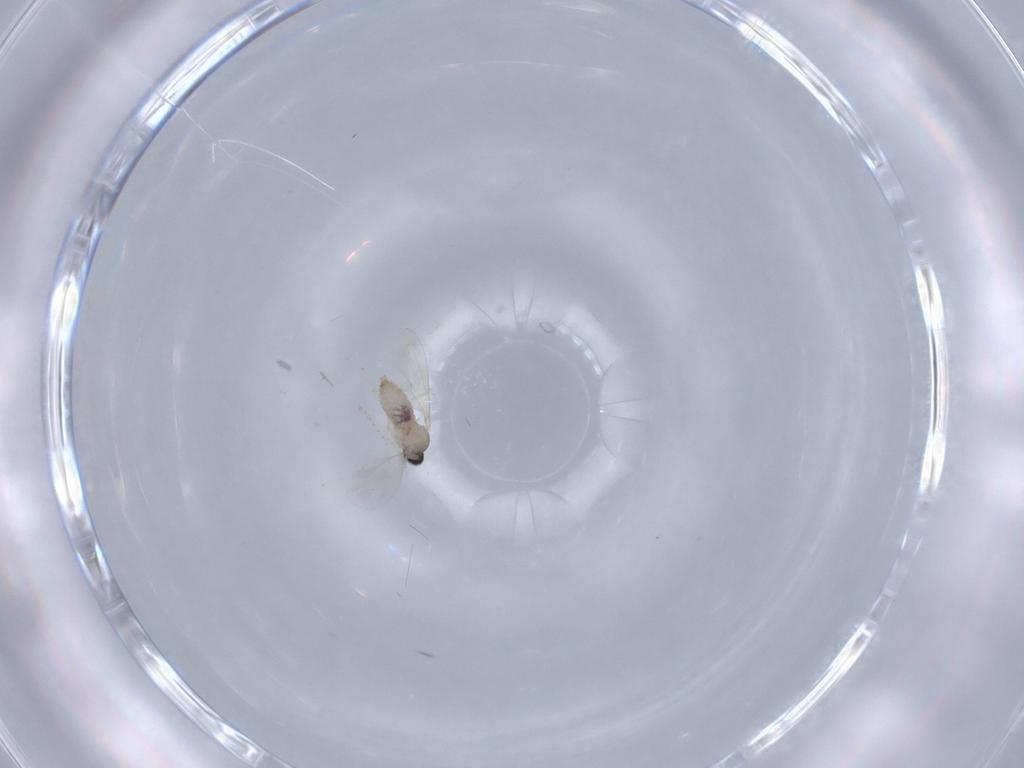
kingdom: Animalia
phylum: Arthropoda
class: Insecta
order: Diptera
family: Cecidomyiidae
